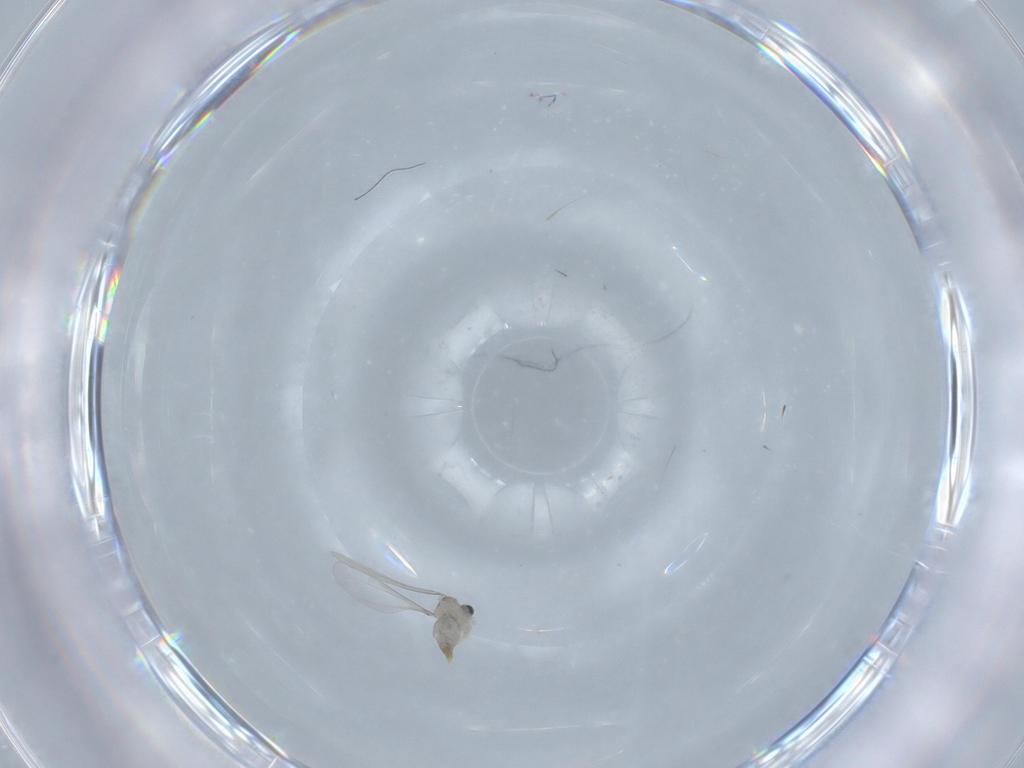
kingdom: Animalia
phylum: Arthropoda
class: Insecta
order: Diptera
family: Cecidomyiidae
